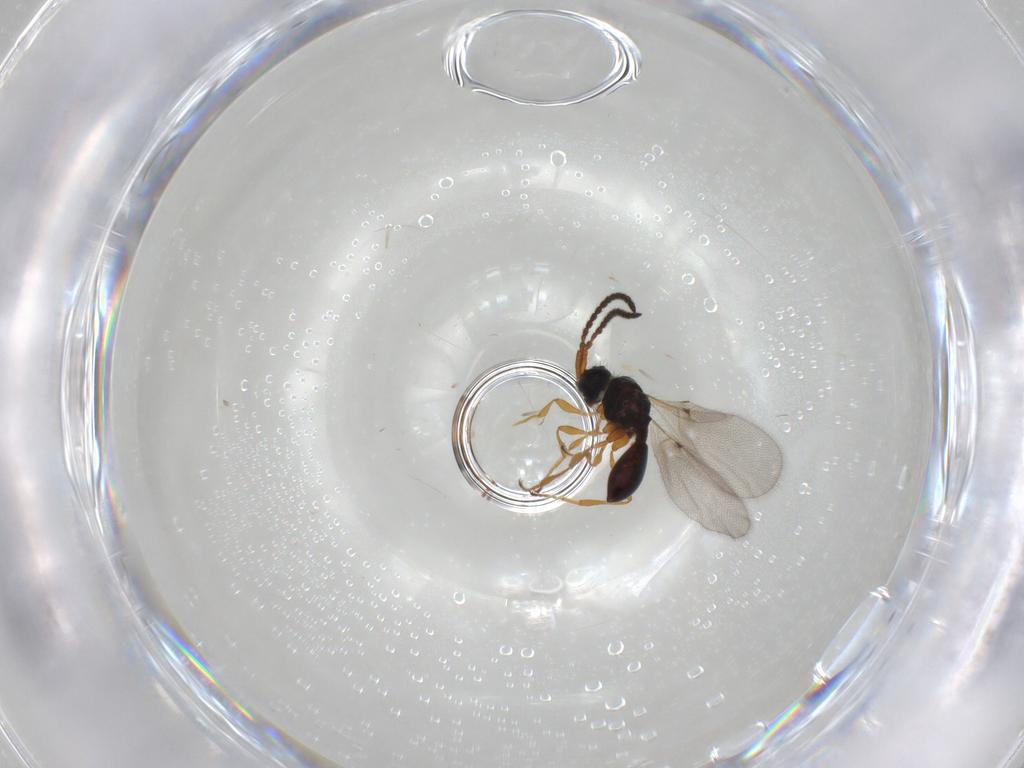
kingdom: Animalia
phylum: Arthropoda
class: Insecta
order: Hymenoptera
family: Diapriidae
